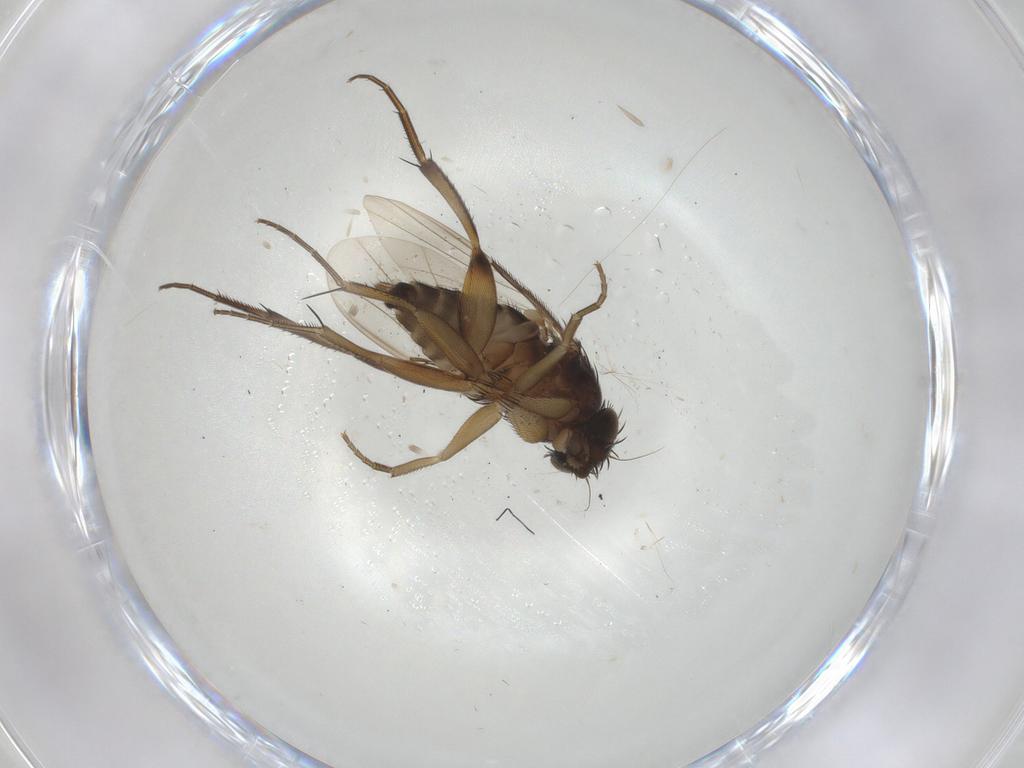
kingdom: Animalia
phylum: Arthropoda
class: Insecta
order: Diptera
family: Phoridae
